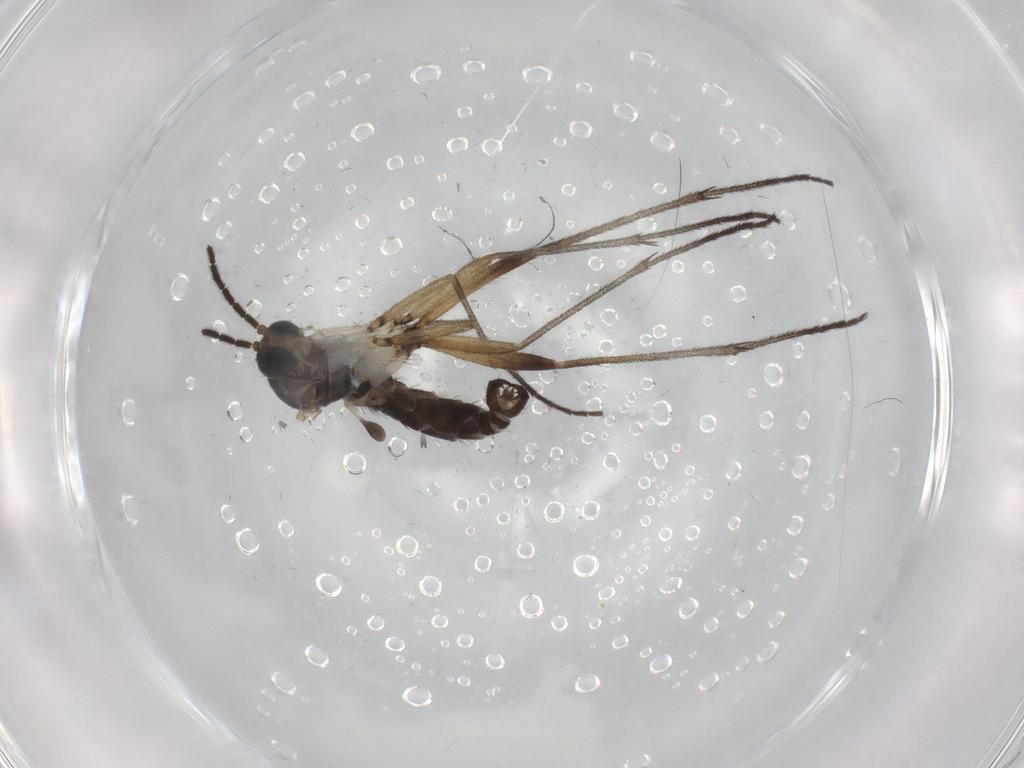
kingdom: Animalia
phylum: Arthropoda
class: Insecta
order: Diptera
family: Sciaridae
